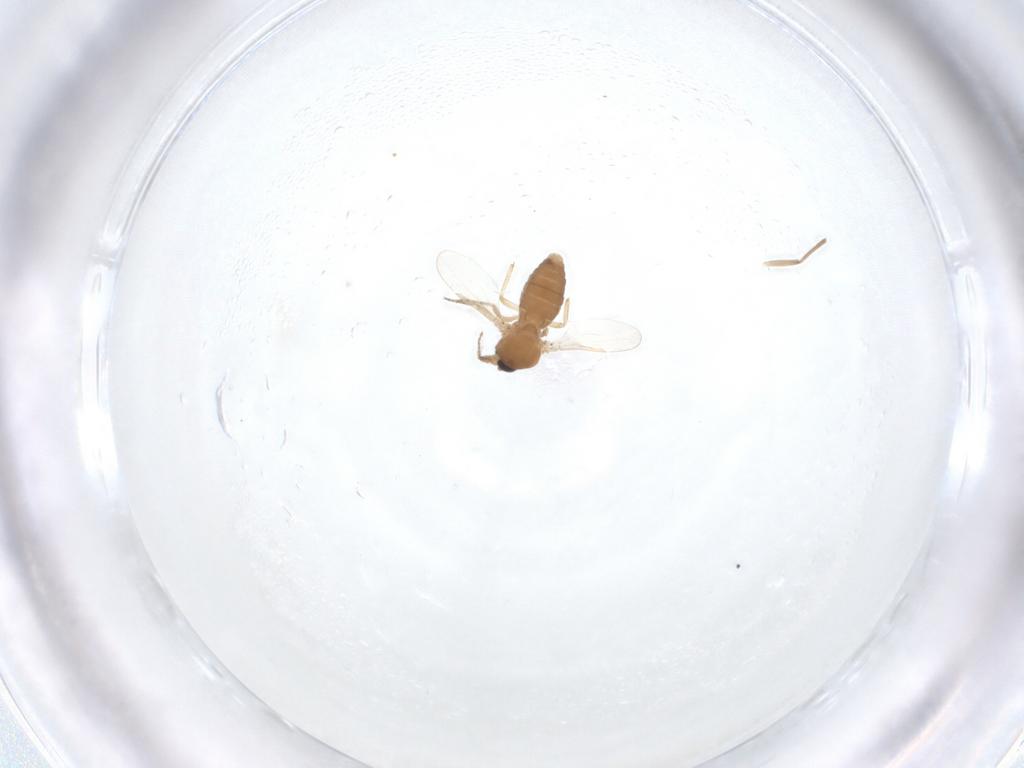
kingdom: Animalia
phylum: Arthropoda
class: Insecta
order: Diptera
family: Ceratopogonidae
